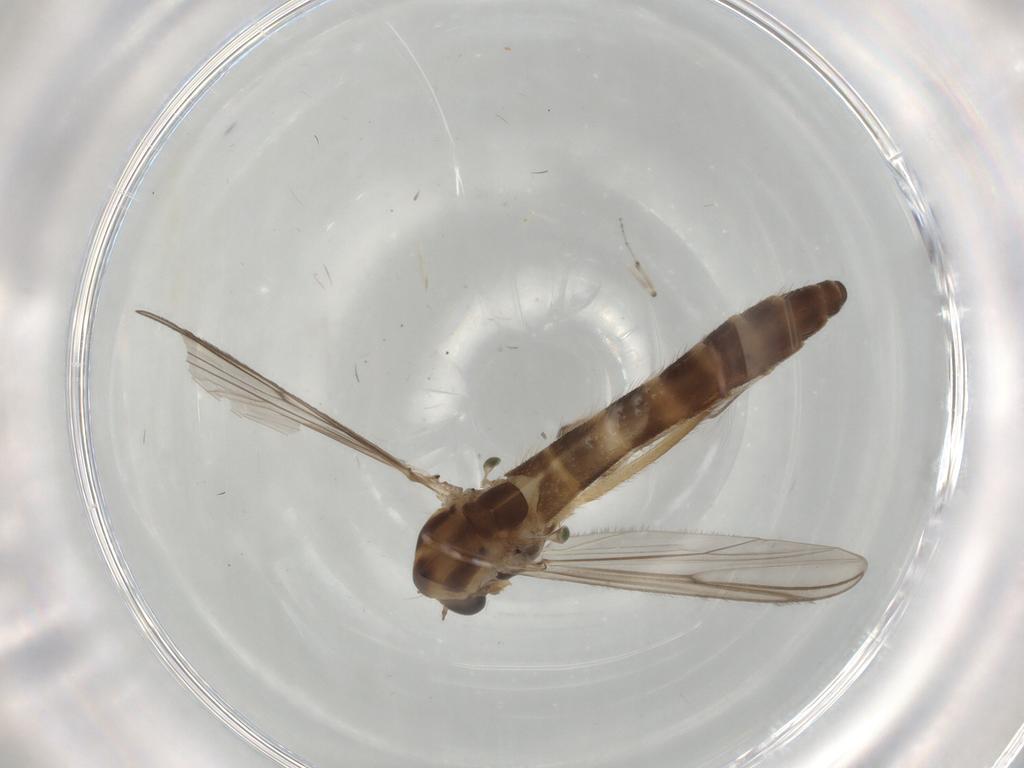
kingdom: Animalia
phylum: Arthropoda
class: Insecta
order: Diptera
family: Chironomidae
